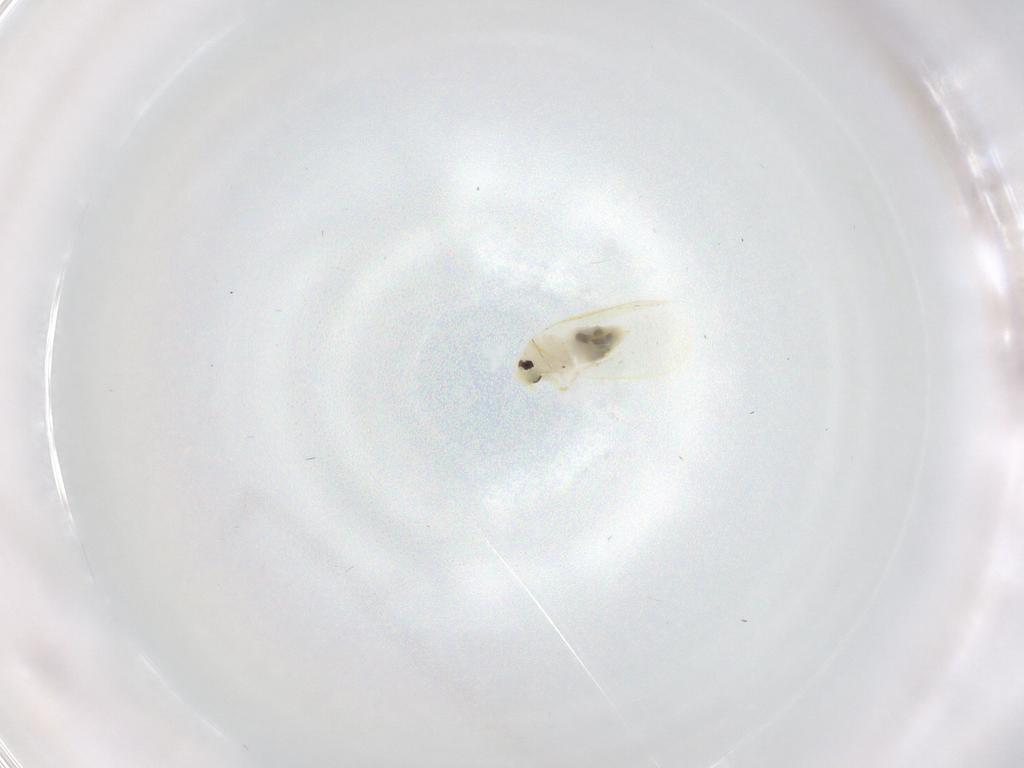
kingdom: Animalia
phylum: Arthropoda
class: Insecta
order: Hemiptera
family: Aleyrodidae
